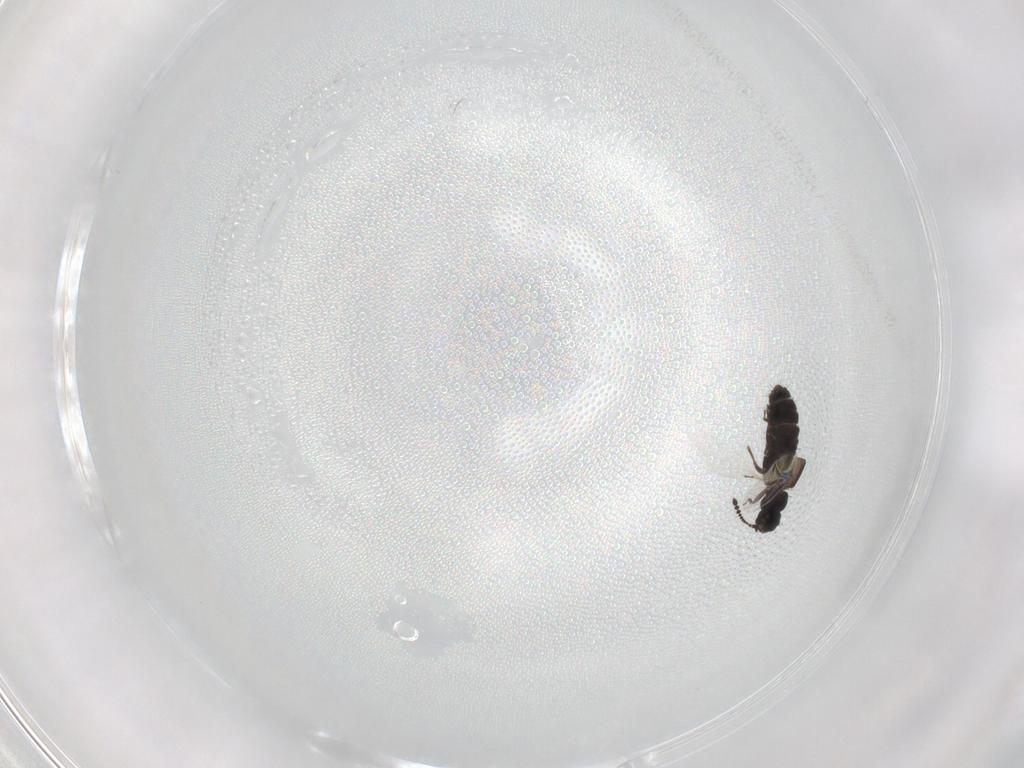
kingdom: Animalia
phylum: Arthropoda
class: Insecta
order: Coleoptera
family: Staphylinidae
